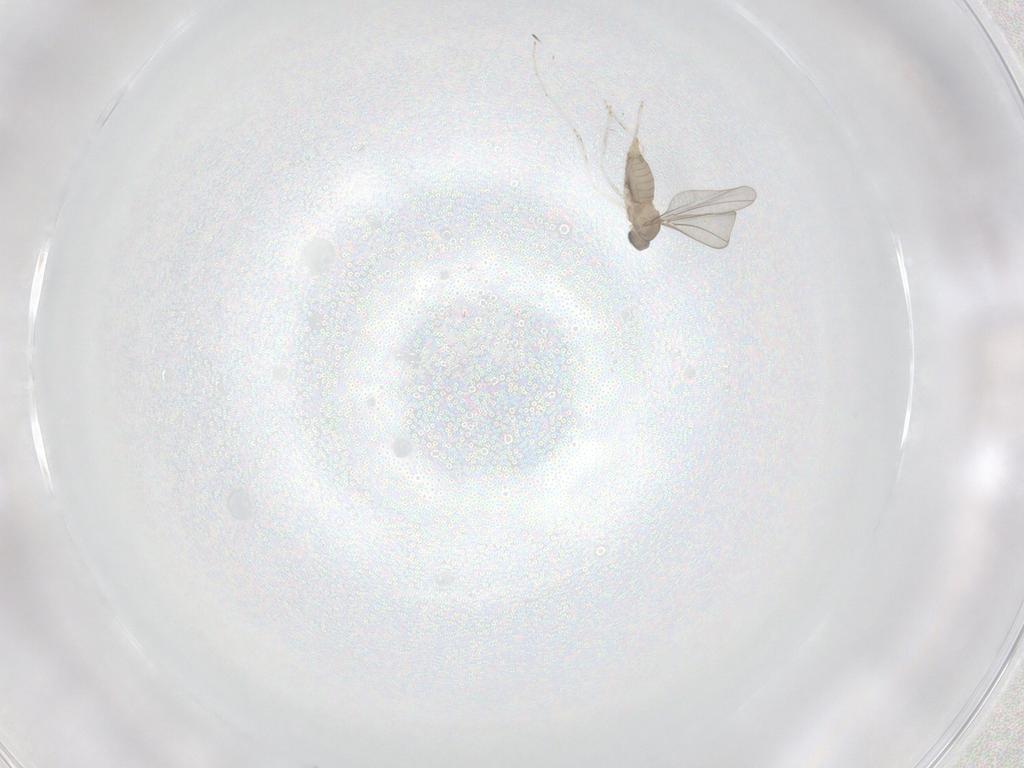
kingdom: Animalia
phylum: Arthropoda
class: Insecta
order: Diptera
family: Cecidomyiidae
